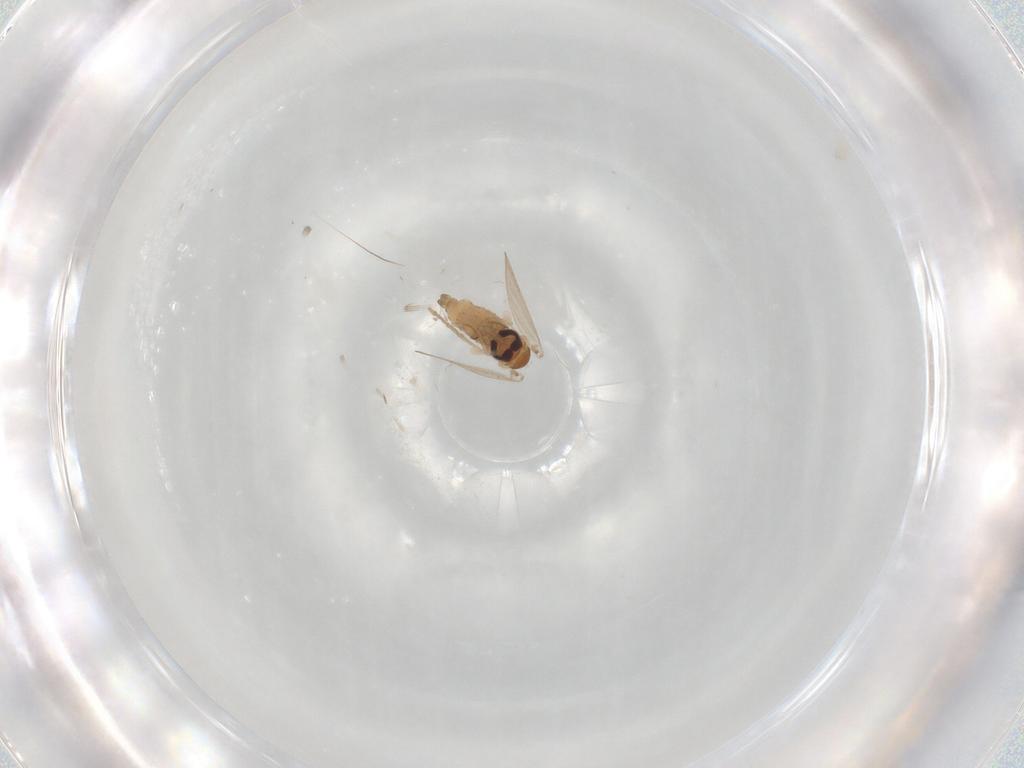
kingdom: Animalia
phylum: Arthropoda
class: Insecta
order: Diptera
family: Psychodidae
